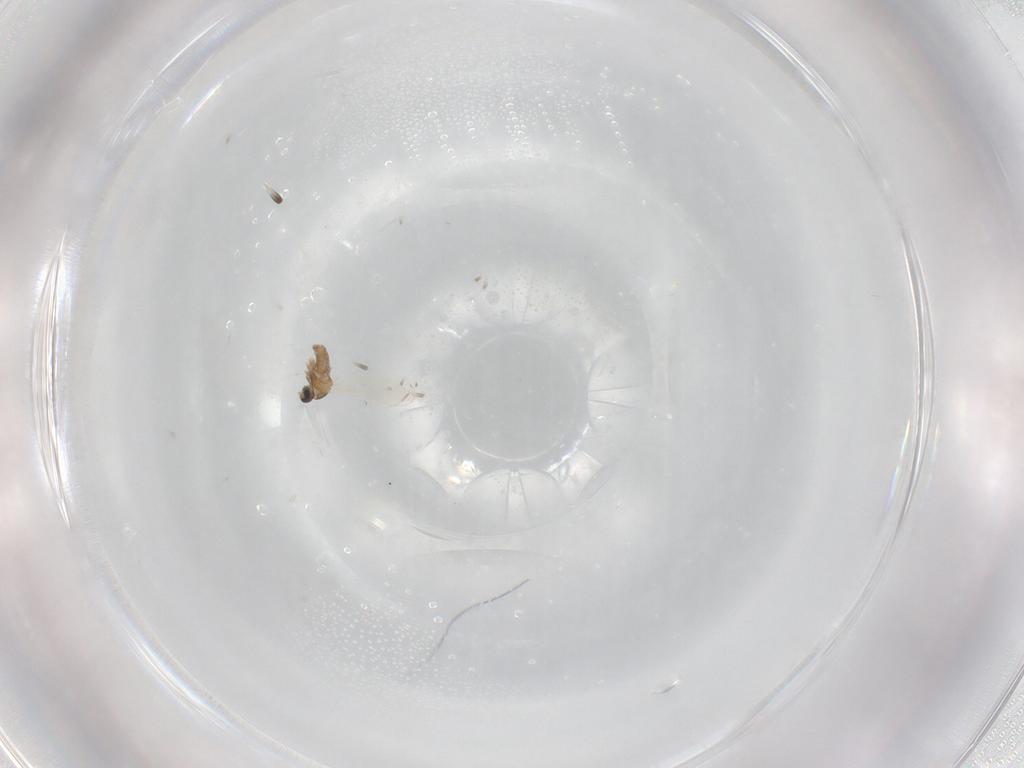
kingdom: Animalia
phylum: Arthropoda
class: Insecta
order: Diptera
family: Cecidomyiidae
